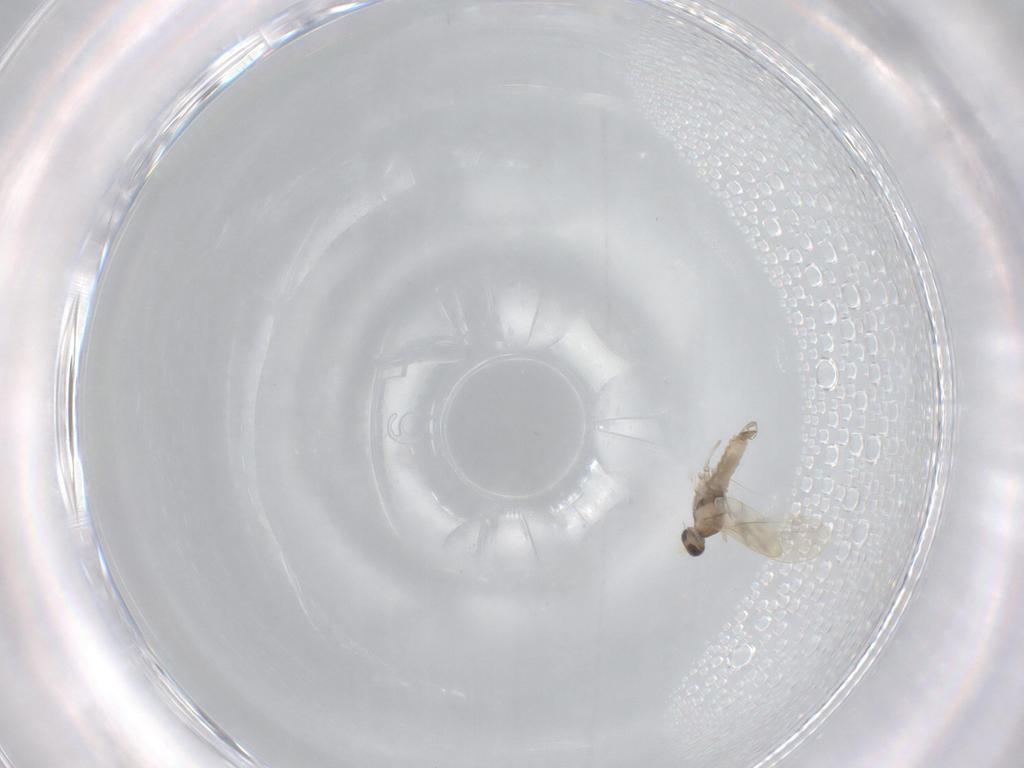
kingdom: Animalia
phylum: Arthropoda
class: Insecta
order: Diptera
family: Cecidomyiidae
